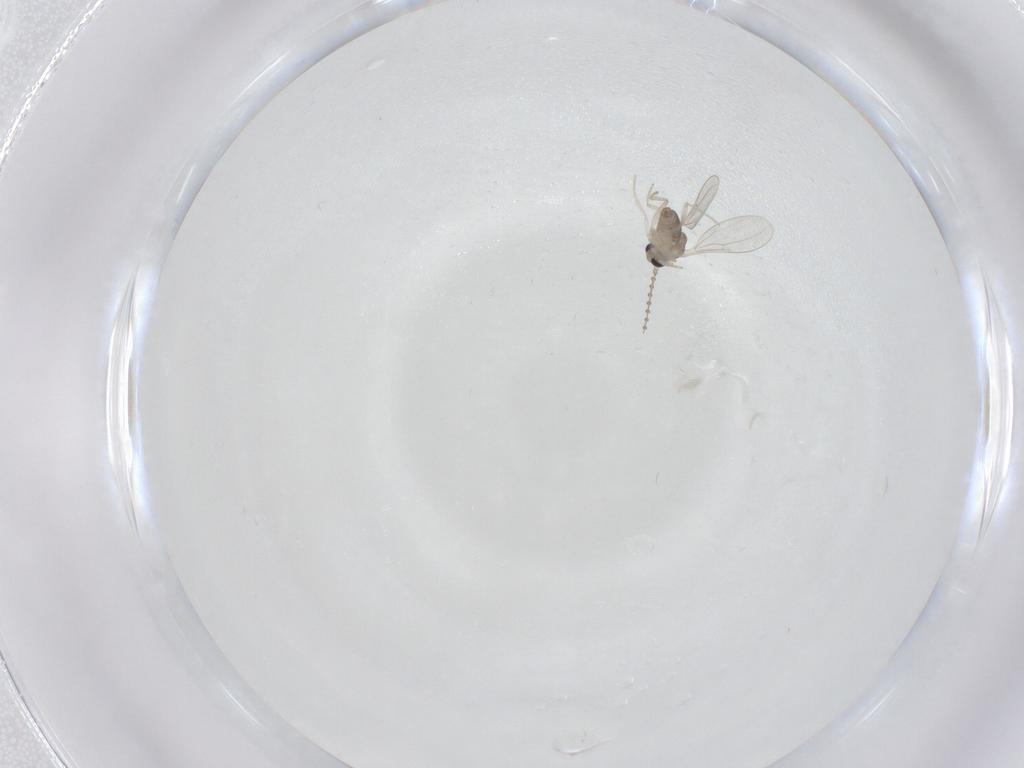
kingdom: Animalia
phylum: Arthropoda
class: Insecta
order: Diptera
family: Cecidomyiidae
